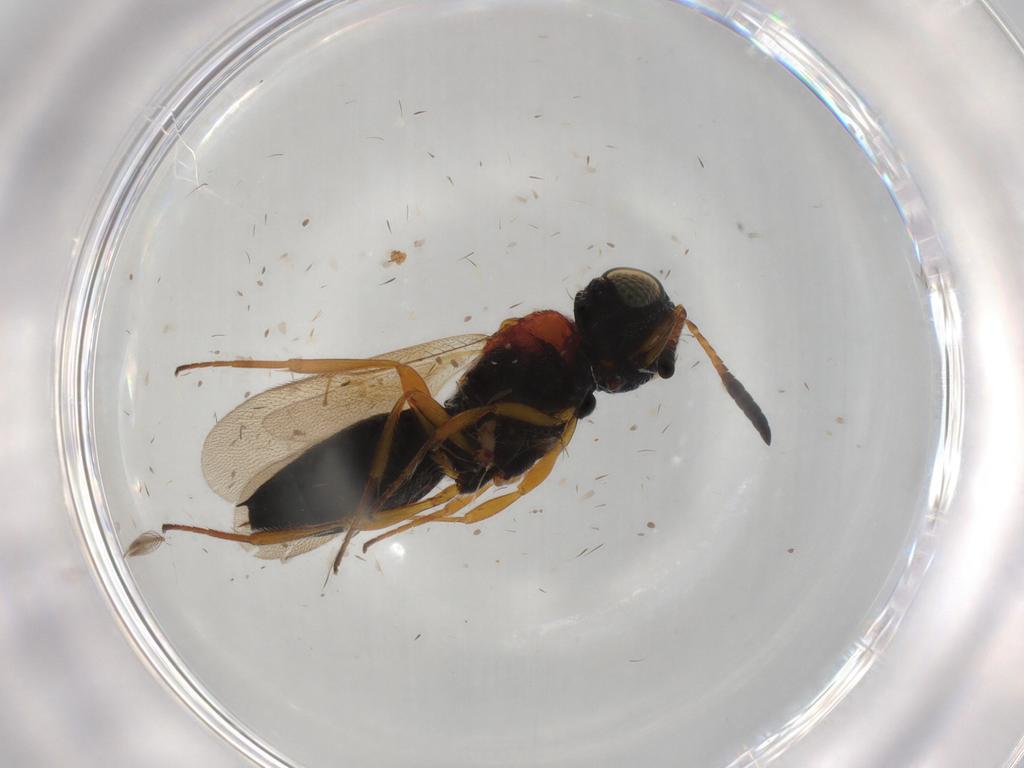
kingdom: Animalia
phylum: Arthropoda
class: Insecta
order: Hymenoptera
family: Scelionidae
